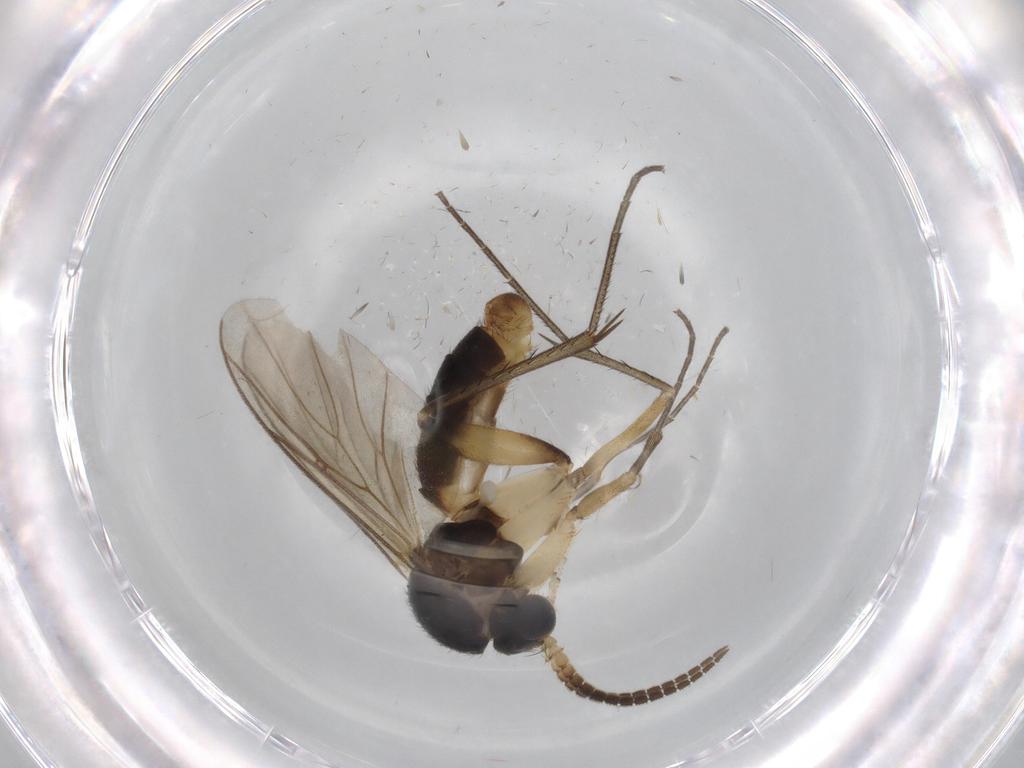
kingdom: Animalia
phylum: Arthropoda
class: Insecta
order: Diptera
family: Mycetophilidae
